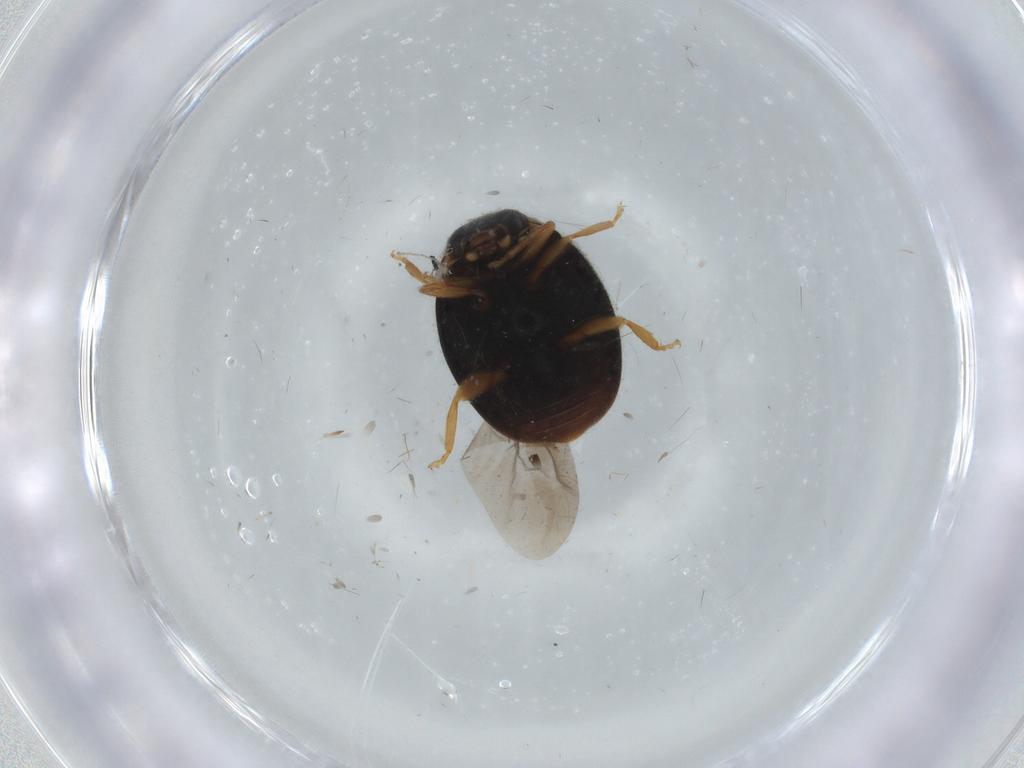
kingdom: Animalia
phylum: Arthropoda
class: Insecta
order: Coleoptera
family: Coccinellidae
